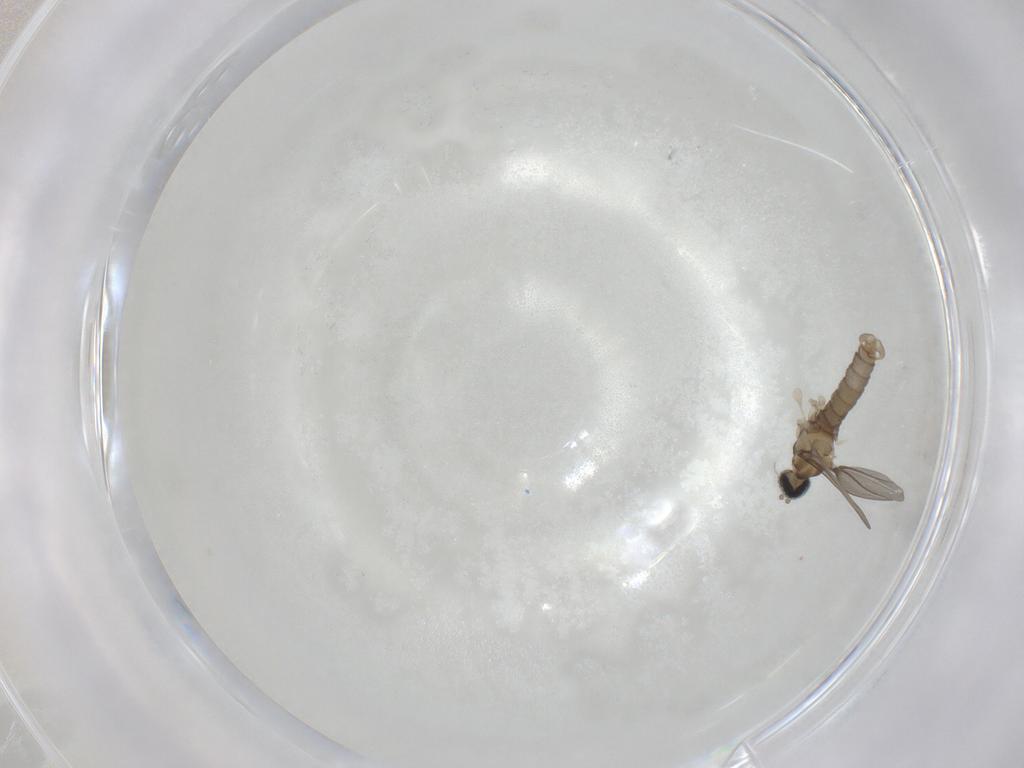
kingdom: Animalia
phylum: Arthropoda
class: Insecta
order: Diptera
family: Cecidomyiidae
